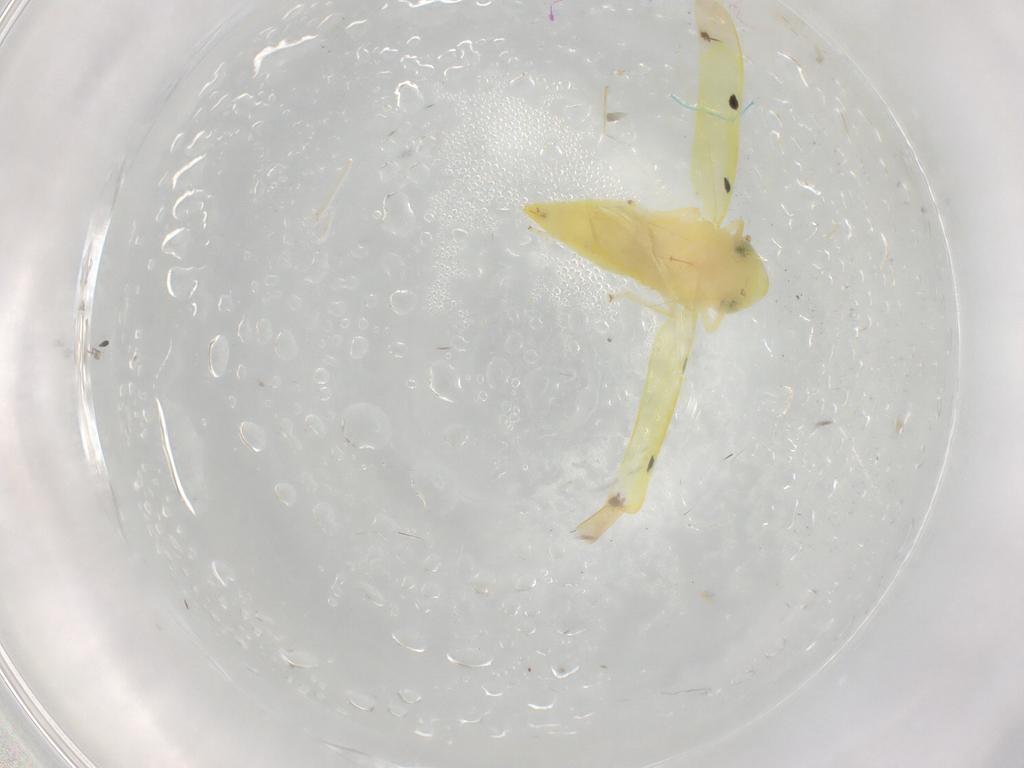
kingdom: Animalia
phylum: Arthropoda
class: Insecta
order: Hemiptera
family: Cicadellidae
